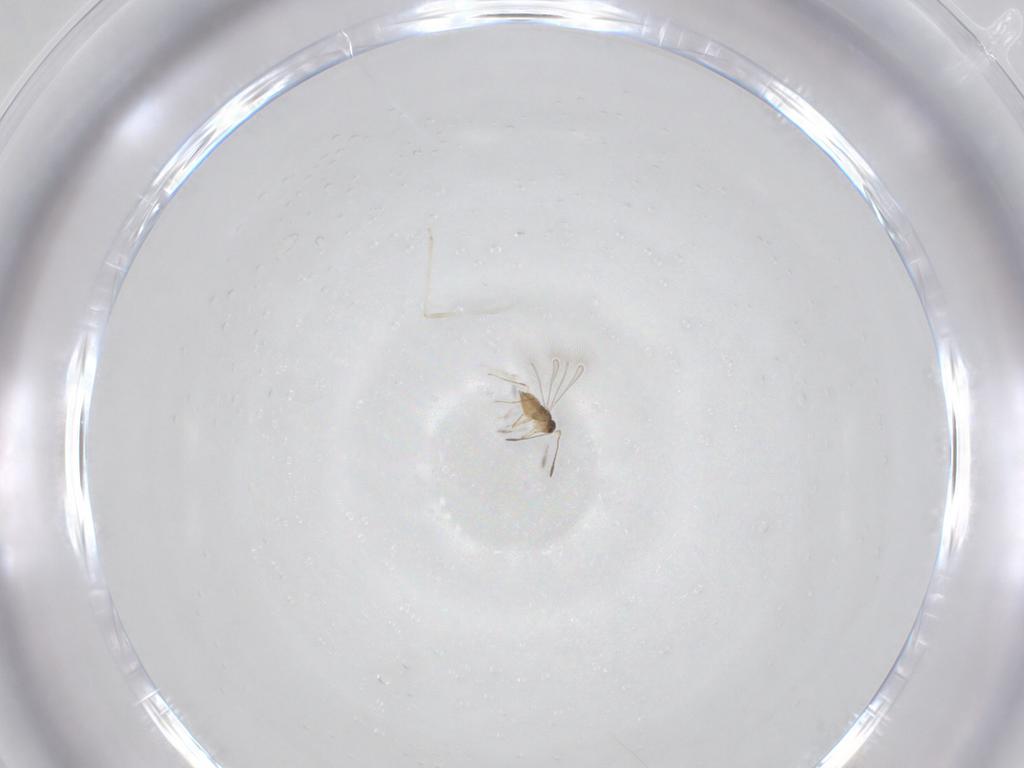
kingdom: Animalia
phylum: Arthropoda
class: Insecta
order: Hymenoptera
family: Mymaridae
